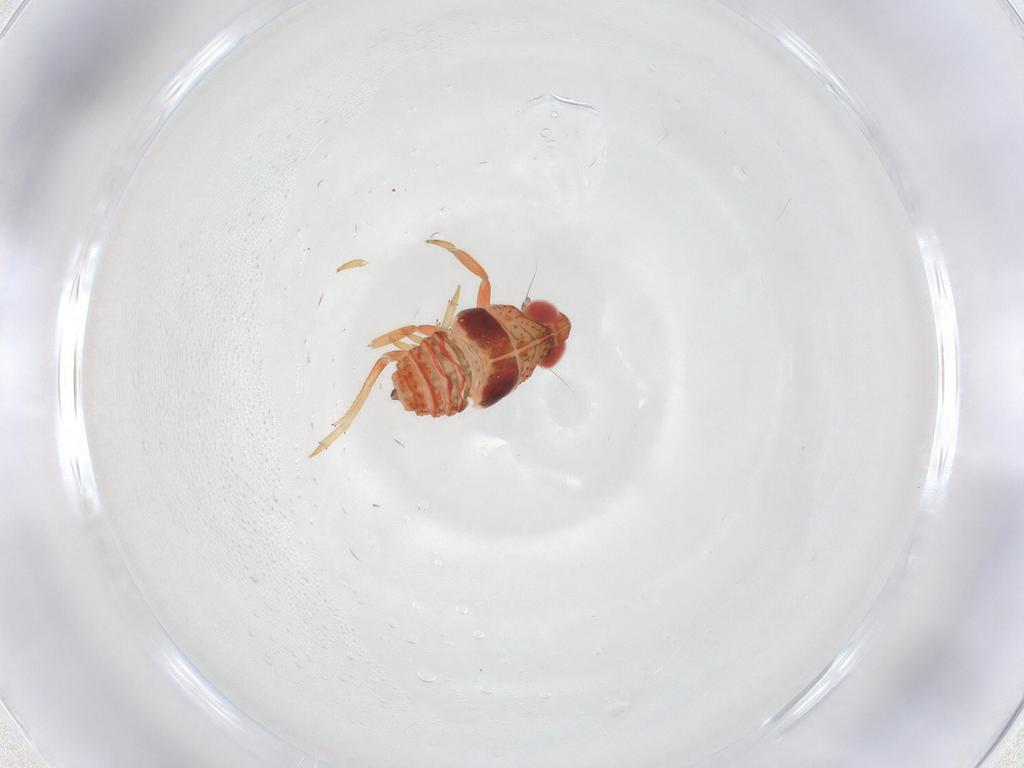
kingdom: Animalia
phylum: Arthropoda
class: Insecta
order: Hemiptera
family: Issidae
